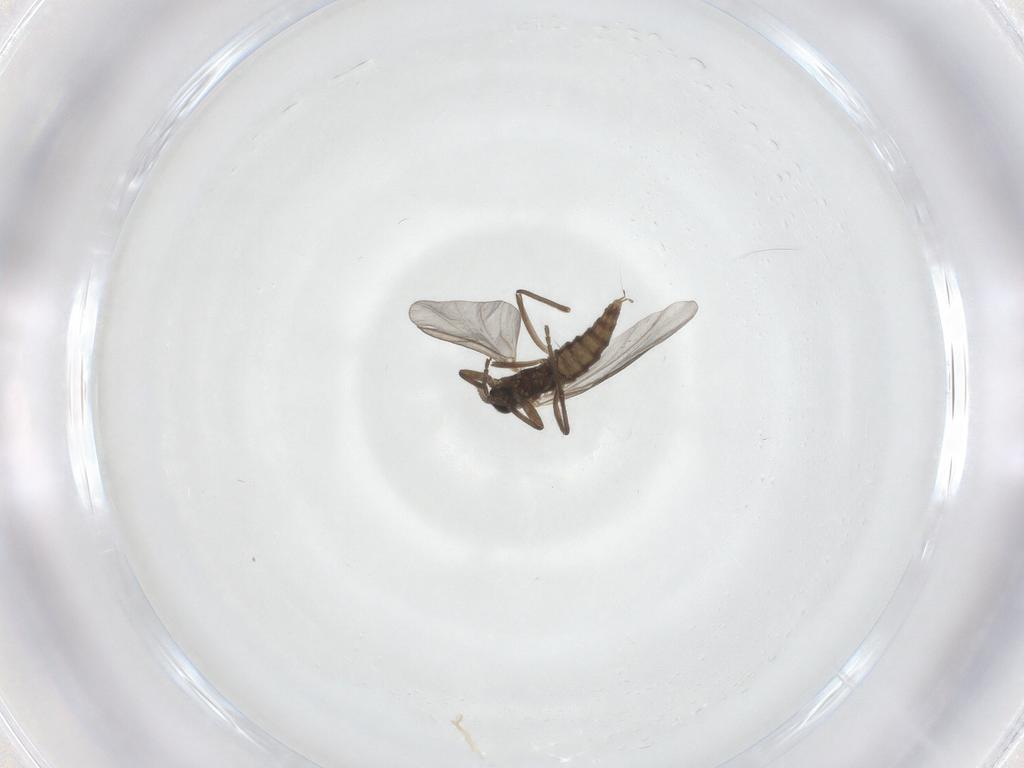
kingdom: Animalia
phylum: Arthropoda
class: Insecta
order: Diptera
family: Cecidomyiidae
